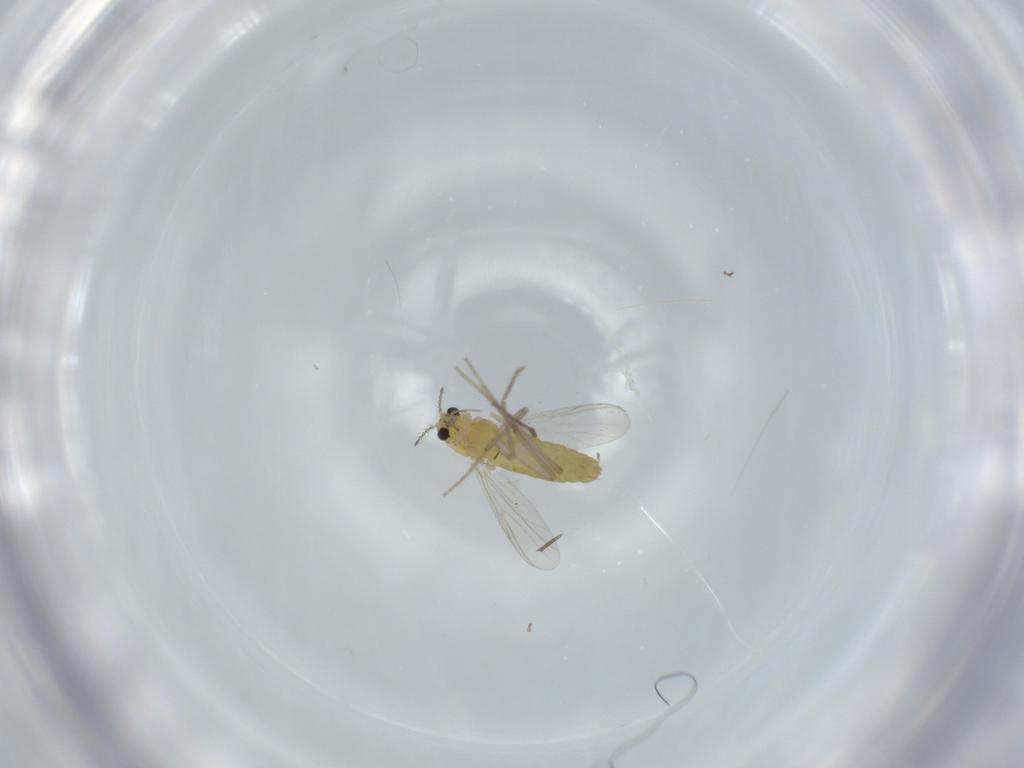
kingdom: Animalia
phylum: Arthropoda
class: Insecta
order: Diptera
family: Chironomidae
